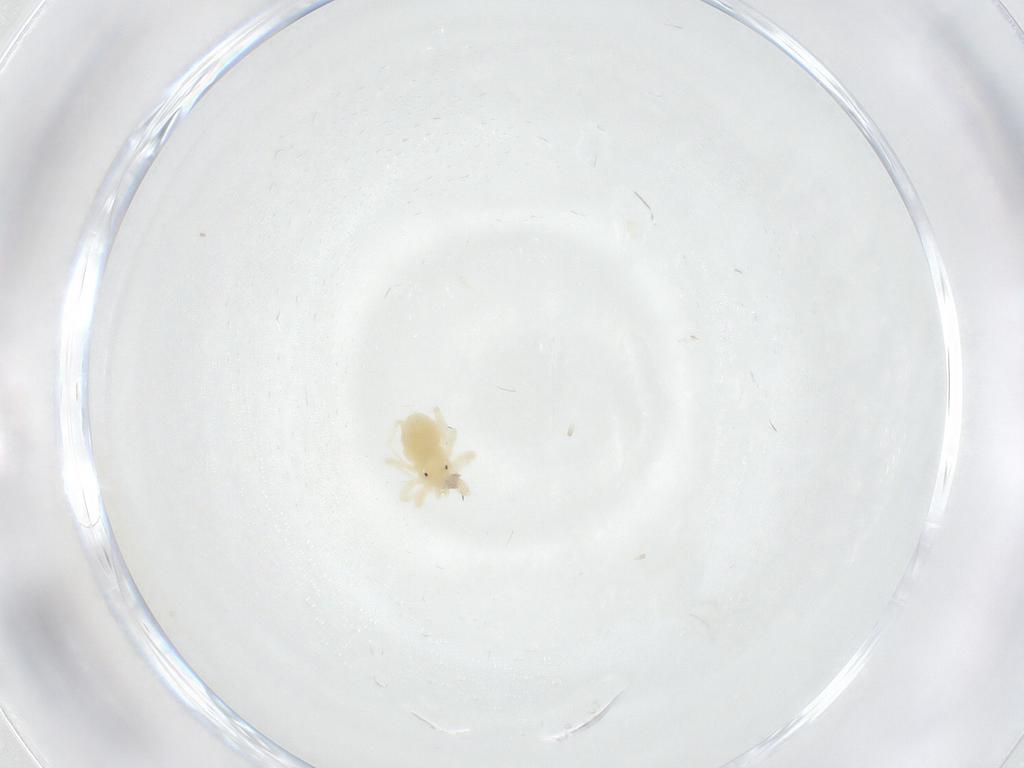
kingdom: Animalia
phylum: Arthropoda
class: Arachnida
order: Trombidiformes
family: Anystidae
